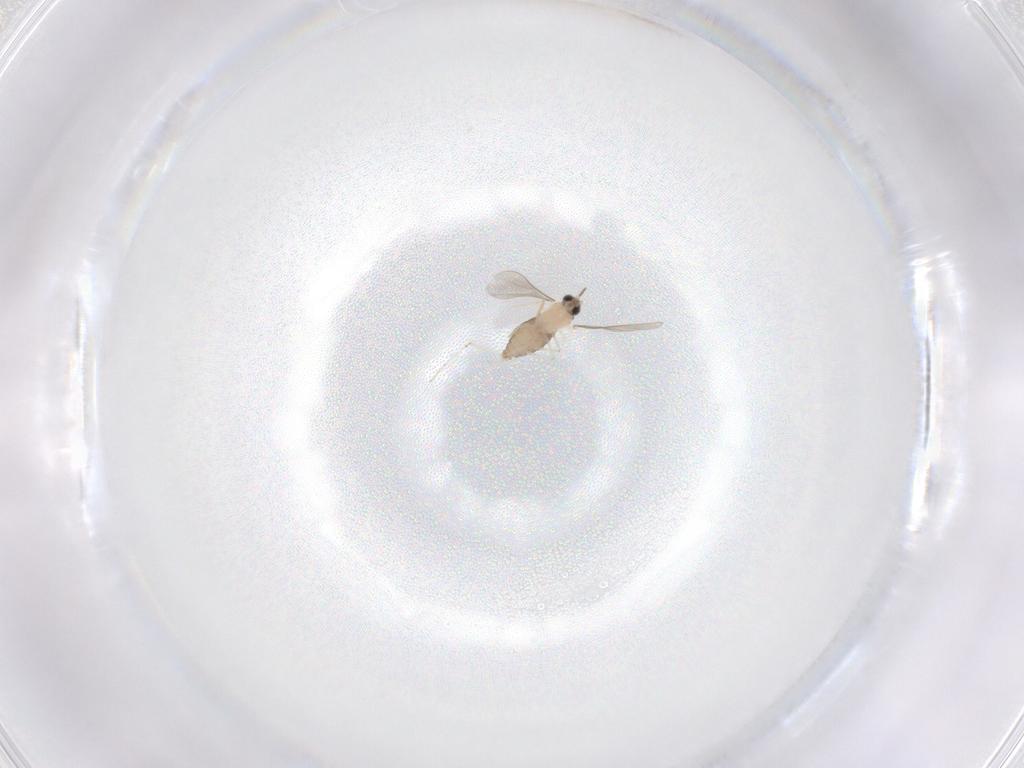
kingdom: Animalia
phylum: Arthropoda
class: Insecta
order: Diptera
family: Cecidomyiidae
